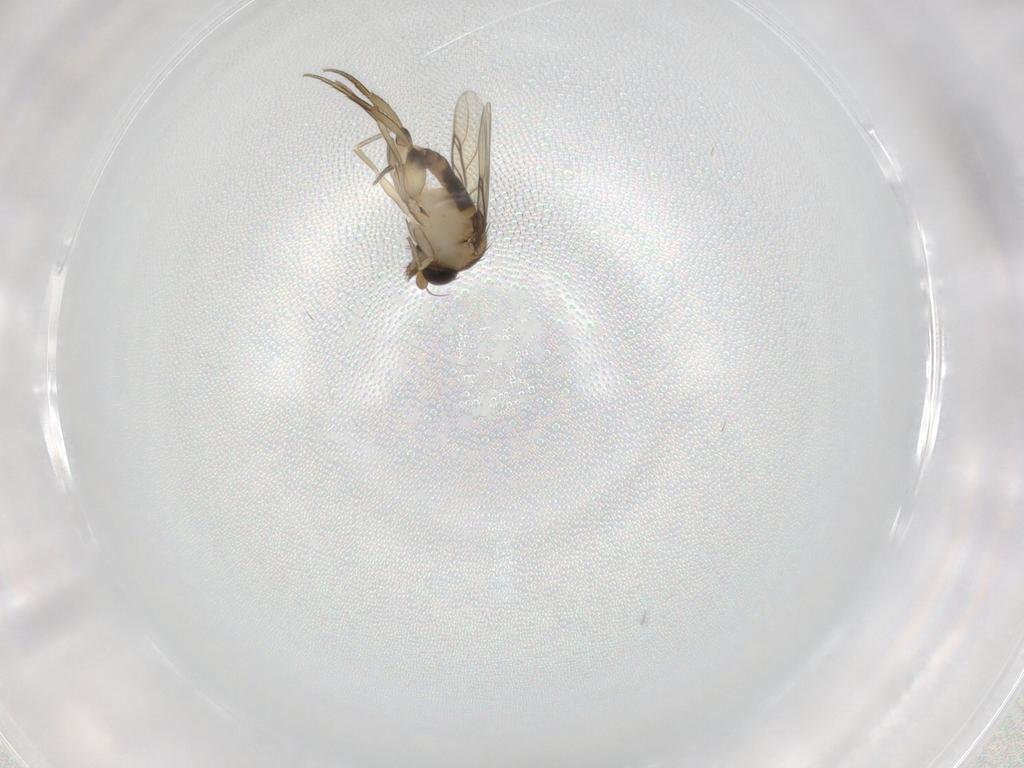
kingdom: Animalia
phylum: Arthropoda
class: Insecta
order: Diptera
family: Phoridae
